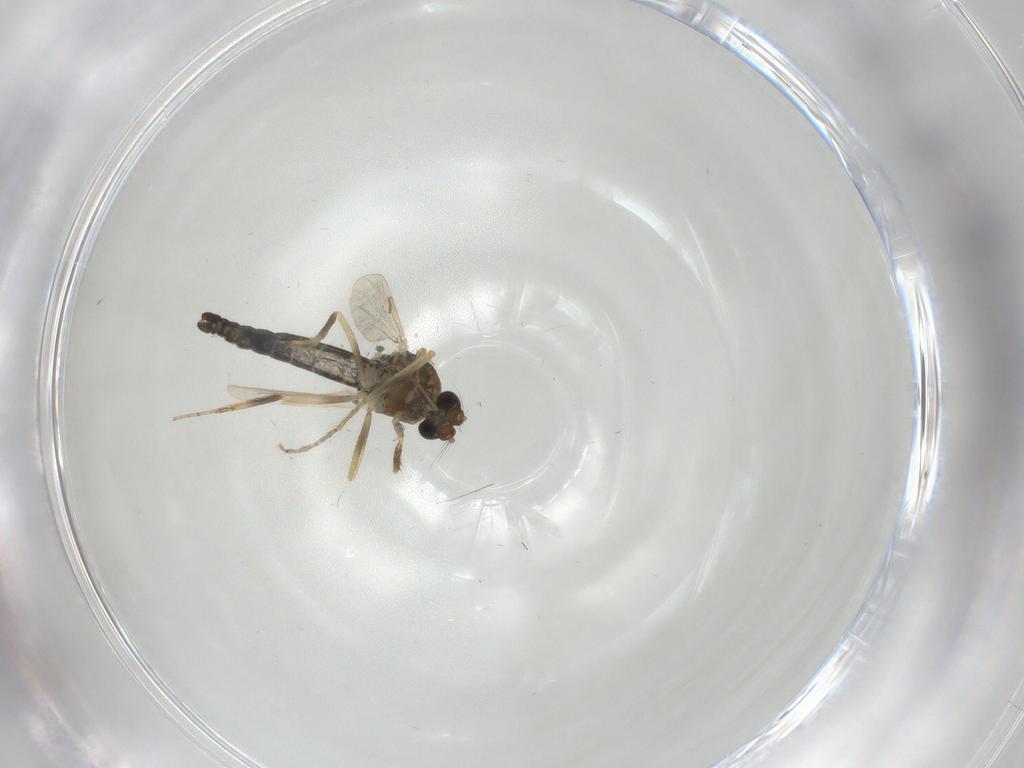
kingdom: Animalia
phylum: Arthropoda
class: Insecta
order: Diptera
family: Ceratopogonidae
